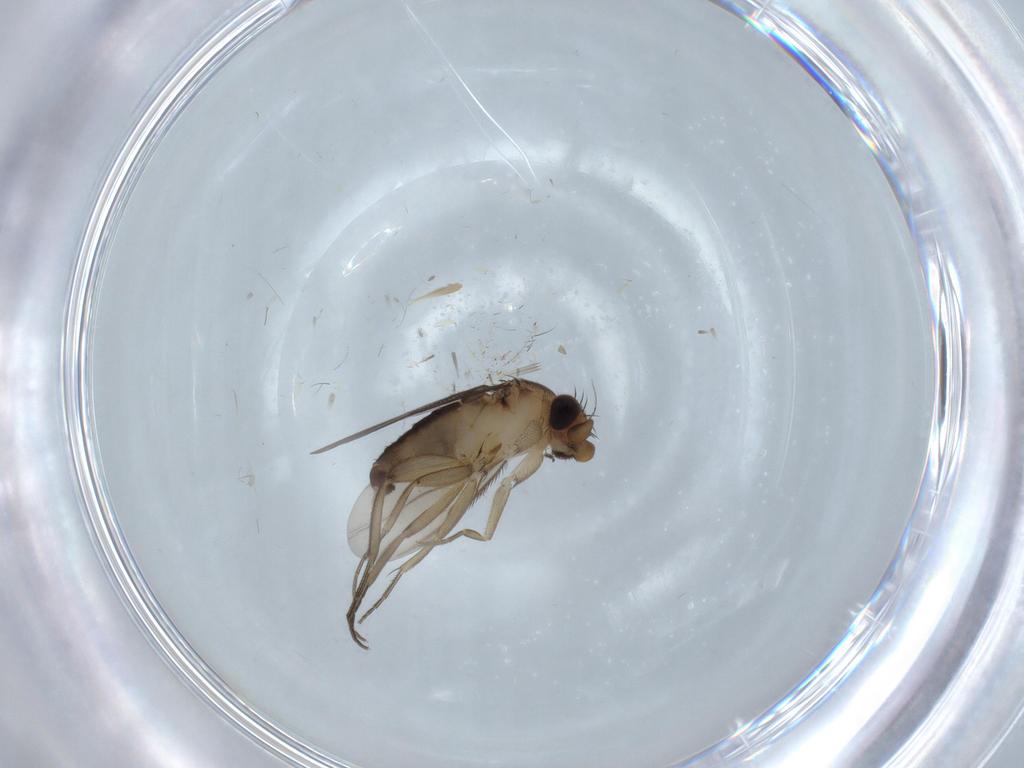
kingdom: Animalia
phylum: Arthropoda
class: Insecta
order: Diptera
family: Phoridae
